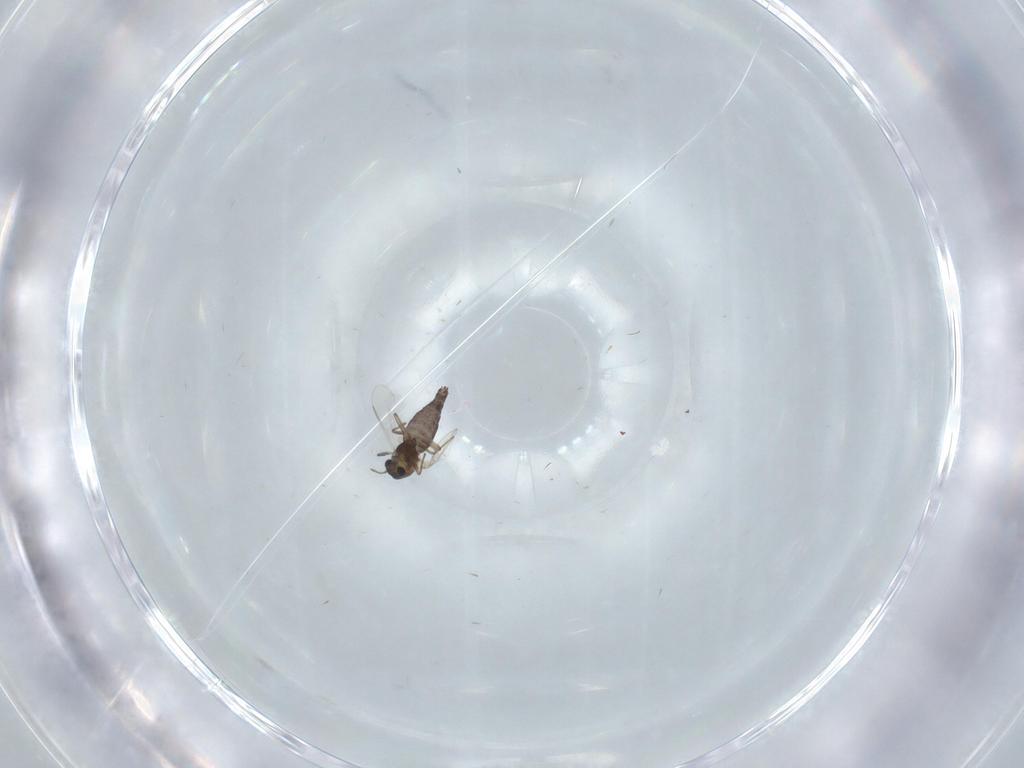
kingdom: Animalia
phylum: Arthropoda
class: Insecta
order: Diptera
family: Chironomidae
